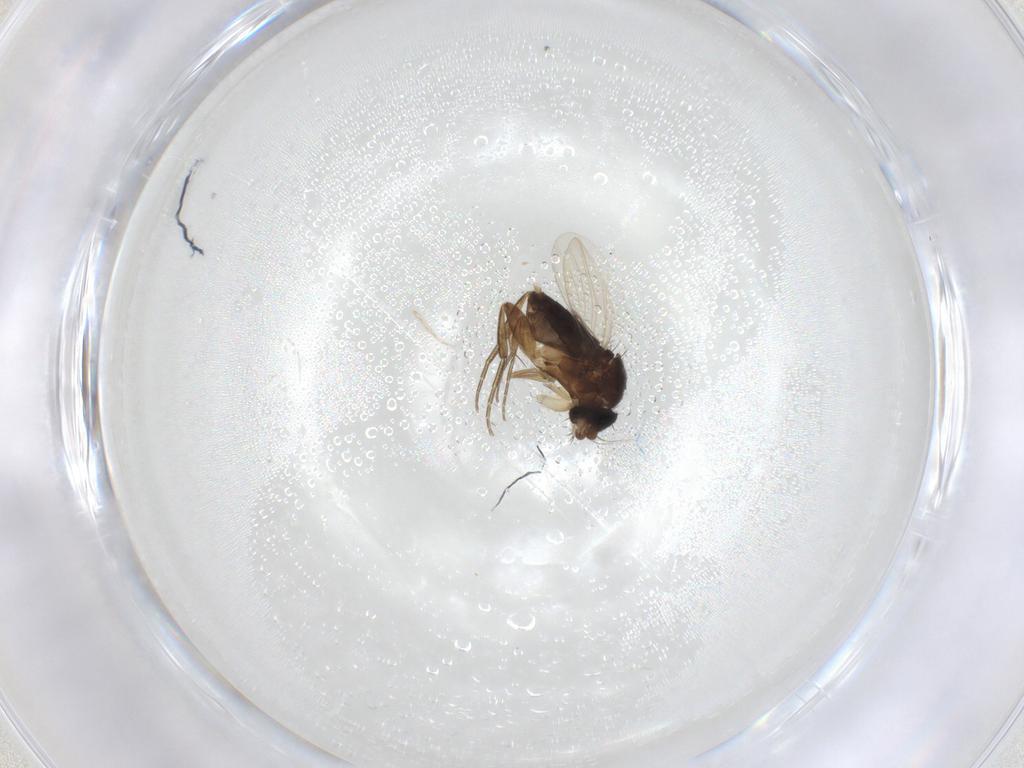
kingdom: Animalia
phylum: Arthropoda
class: Insecta
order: Diptera
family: Phoridae
